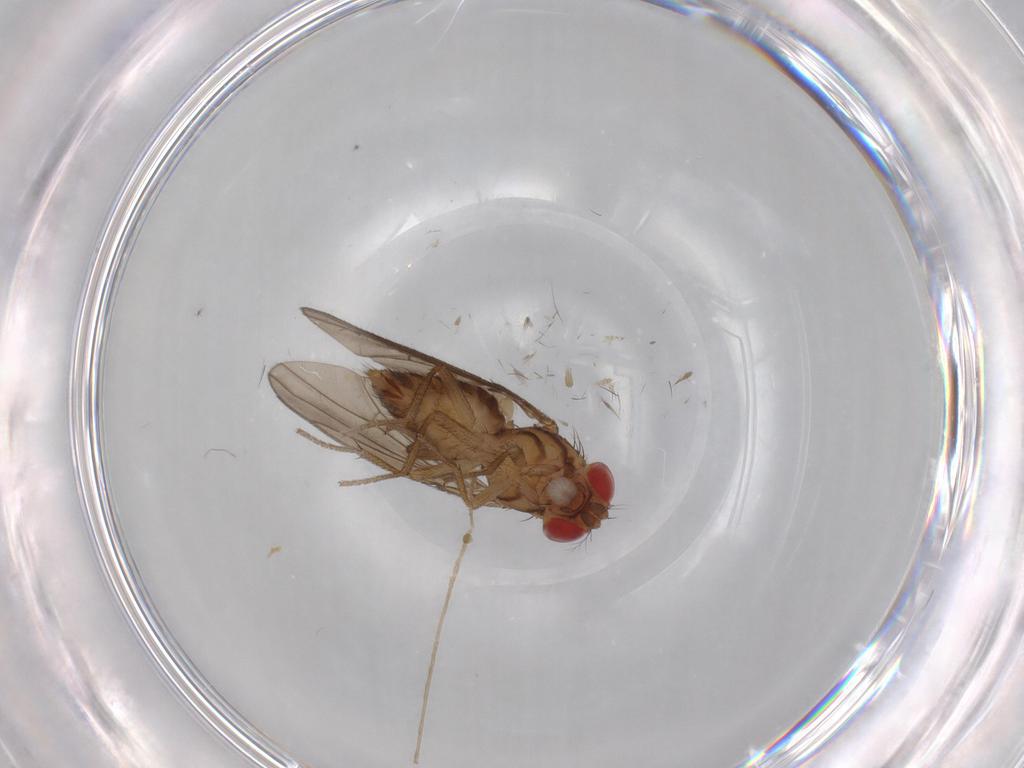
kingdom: Animalia
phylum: Arthropoda
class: Insecta
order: Diptera
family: Drosophilidae
